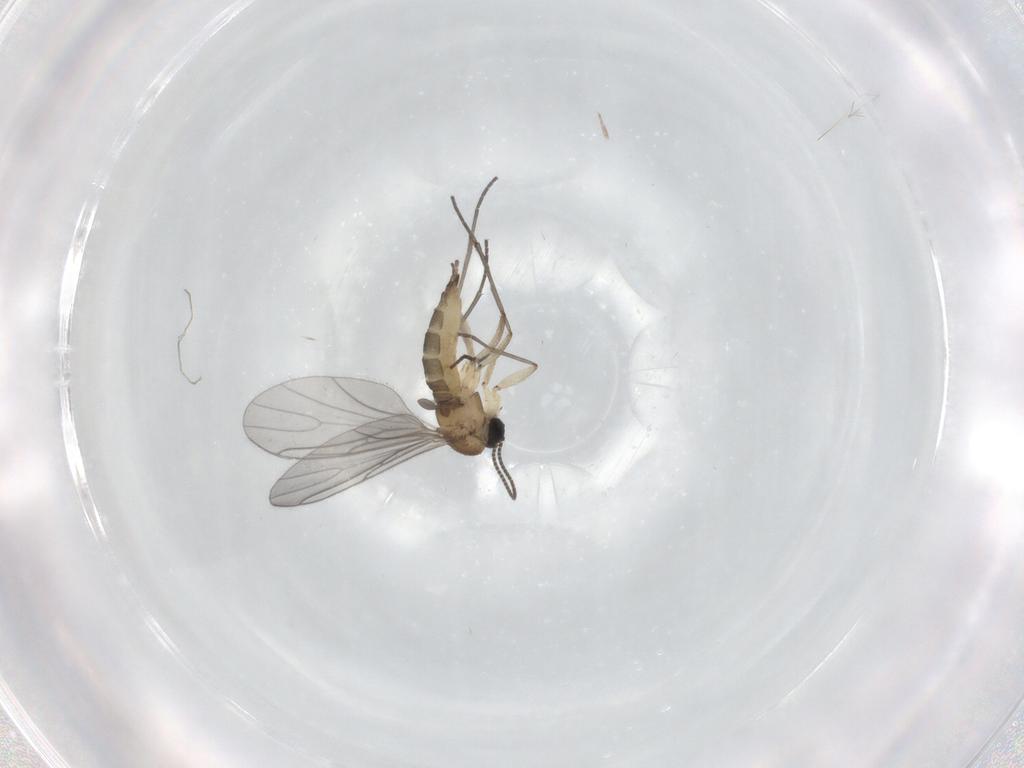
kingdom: Animalia
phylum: Arthropoda
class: Insecta
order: Diptera
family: Sciaridae
